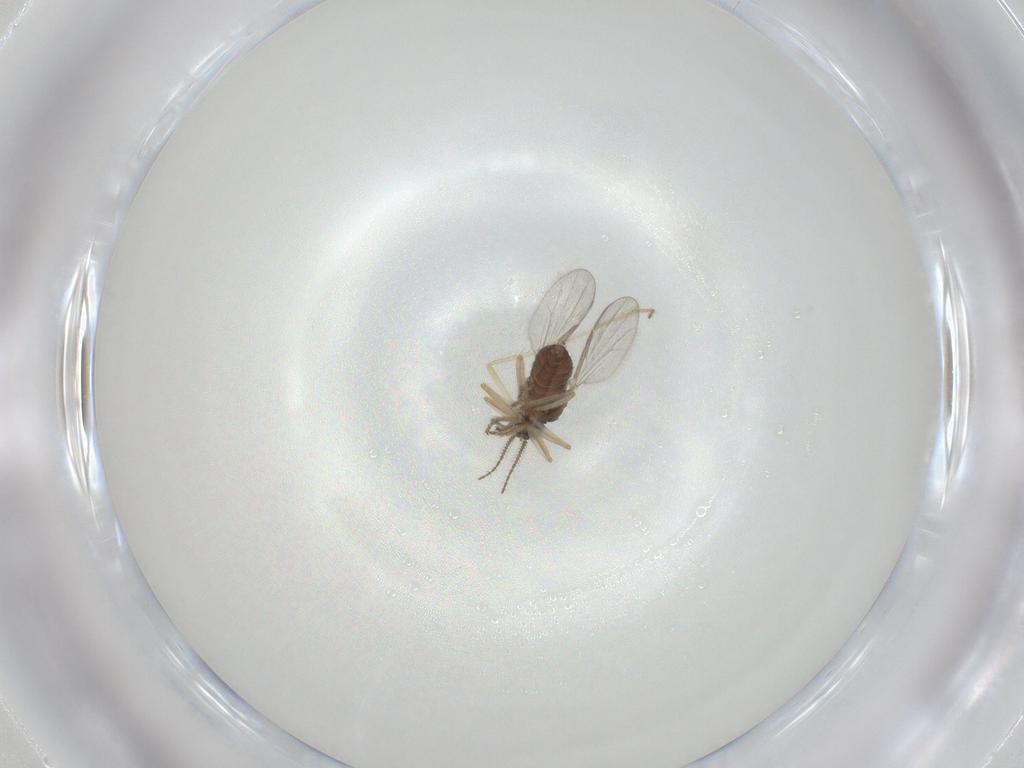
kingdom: Animalia
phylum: Arthropoda
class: Insecta
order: Diptera
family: Ceratopogonidae
